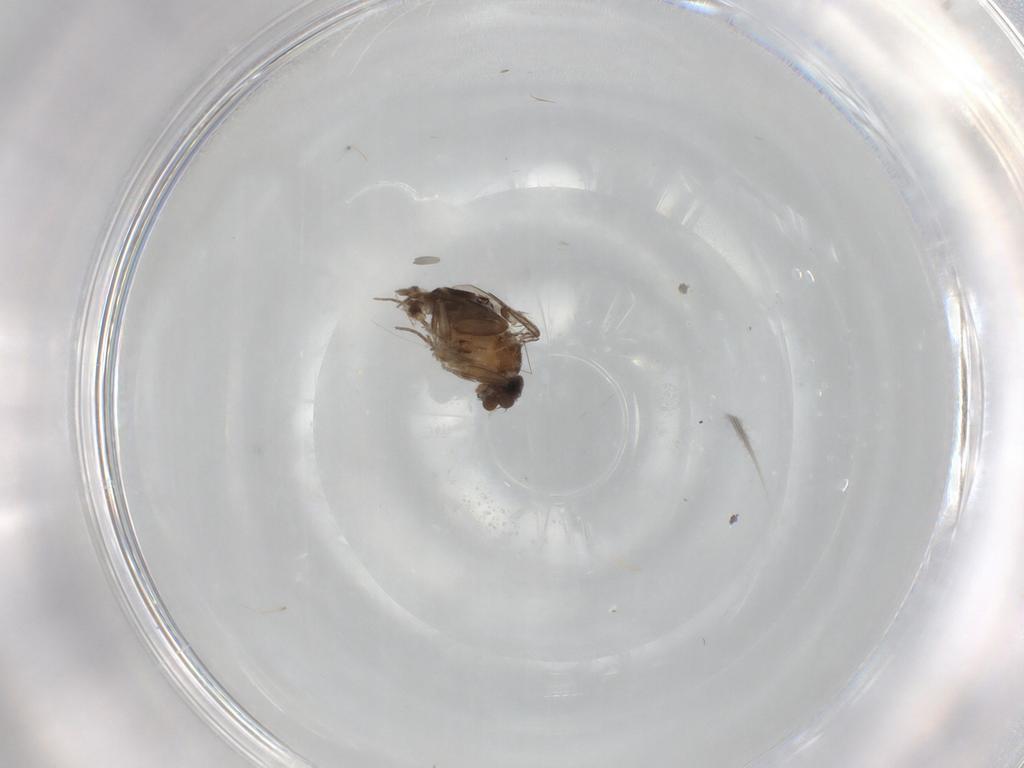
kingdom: Animalia
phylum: Arthropoda
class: Insecta
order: Diptera
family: Phoridae
